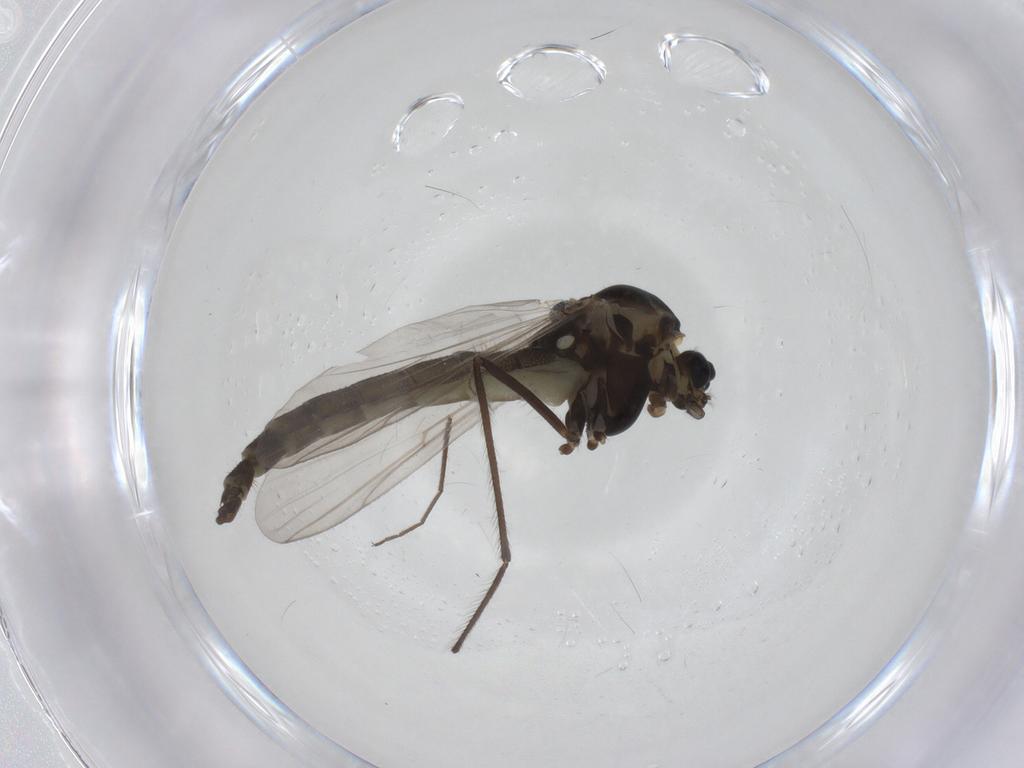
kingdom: Animalia
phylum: Arthropoda
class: Insecta
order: Diptera
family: Chironomidae
